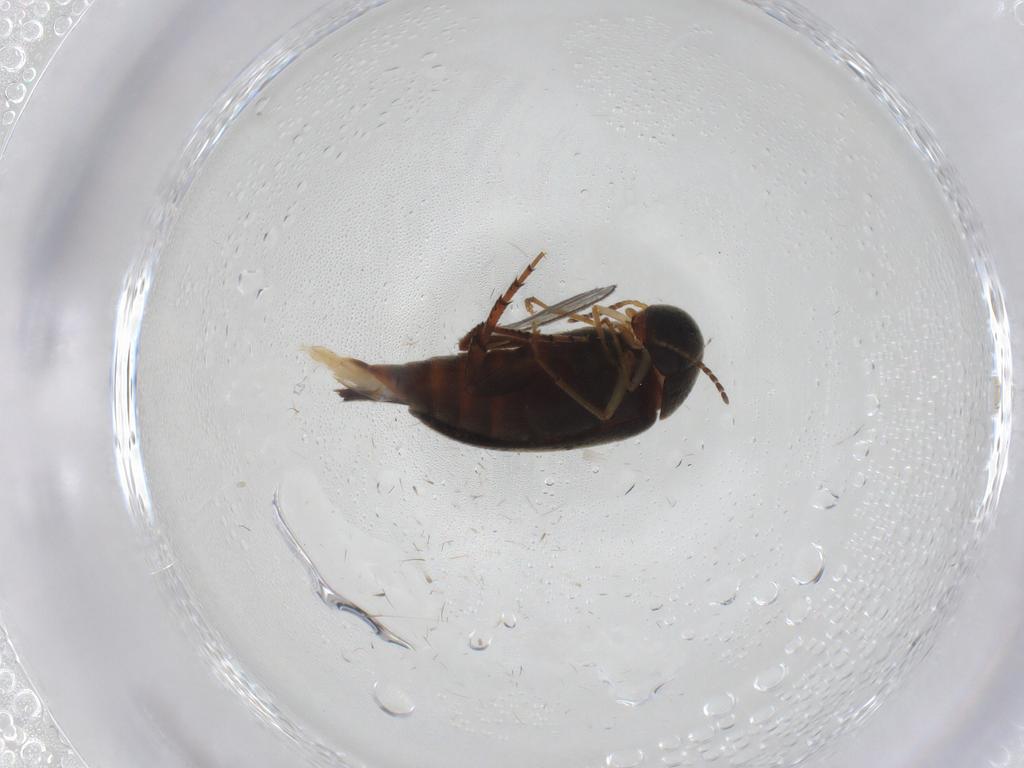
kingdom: Animalia
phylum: Arthropoda
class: Insecta
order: Coleoptera
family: Mordellidae
